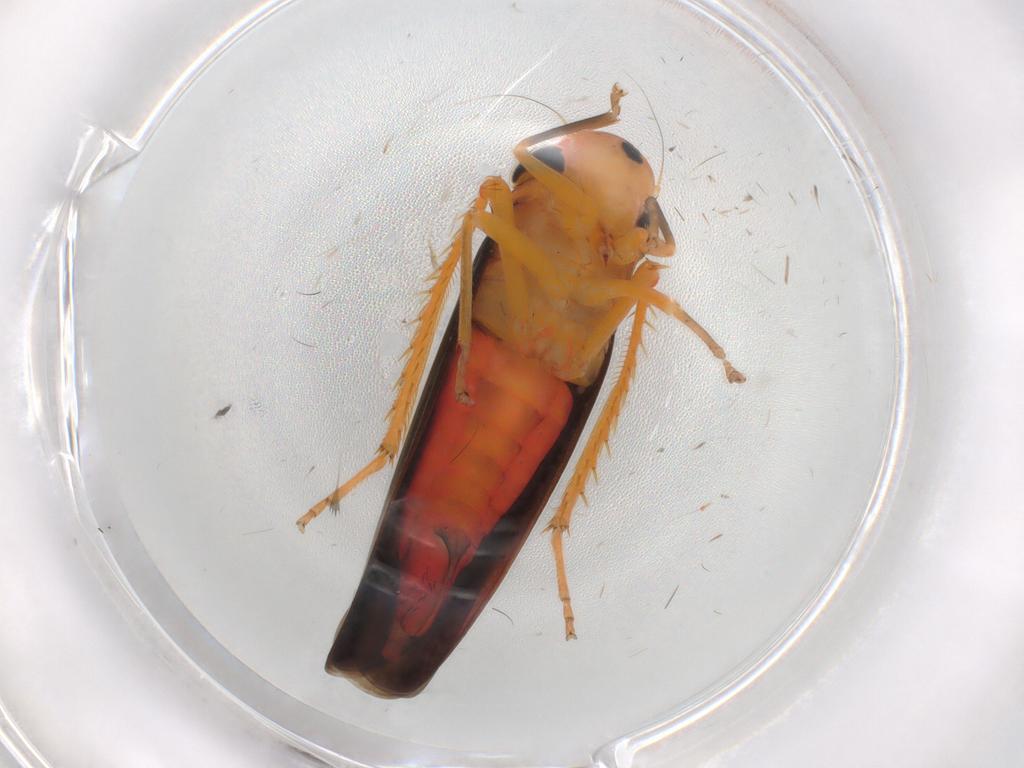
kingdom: Animalia
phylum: Arthropoda
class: Insecta
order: Hemiptera
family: Cicadellidae
